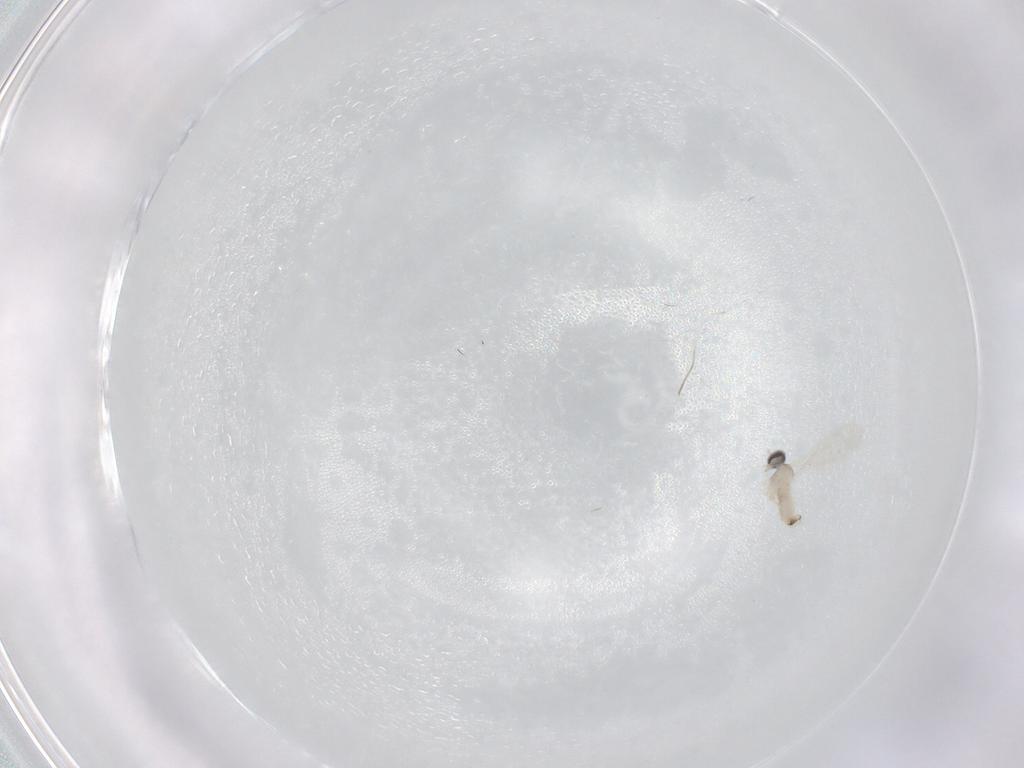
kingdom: Animalia
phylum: Arthropoda
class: Insecta
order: Diptera
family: Cecidomyiidae
